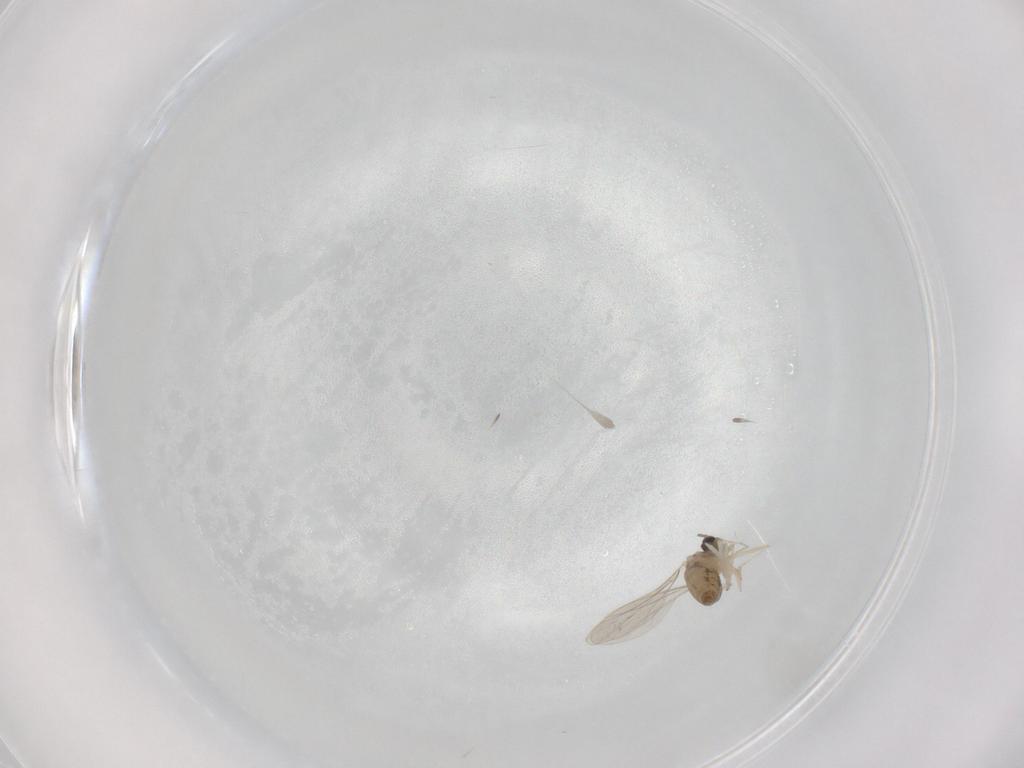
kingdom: Animalia
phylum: Arthropoda
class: Insecta
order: Diptera
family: Cecidomyiidae
